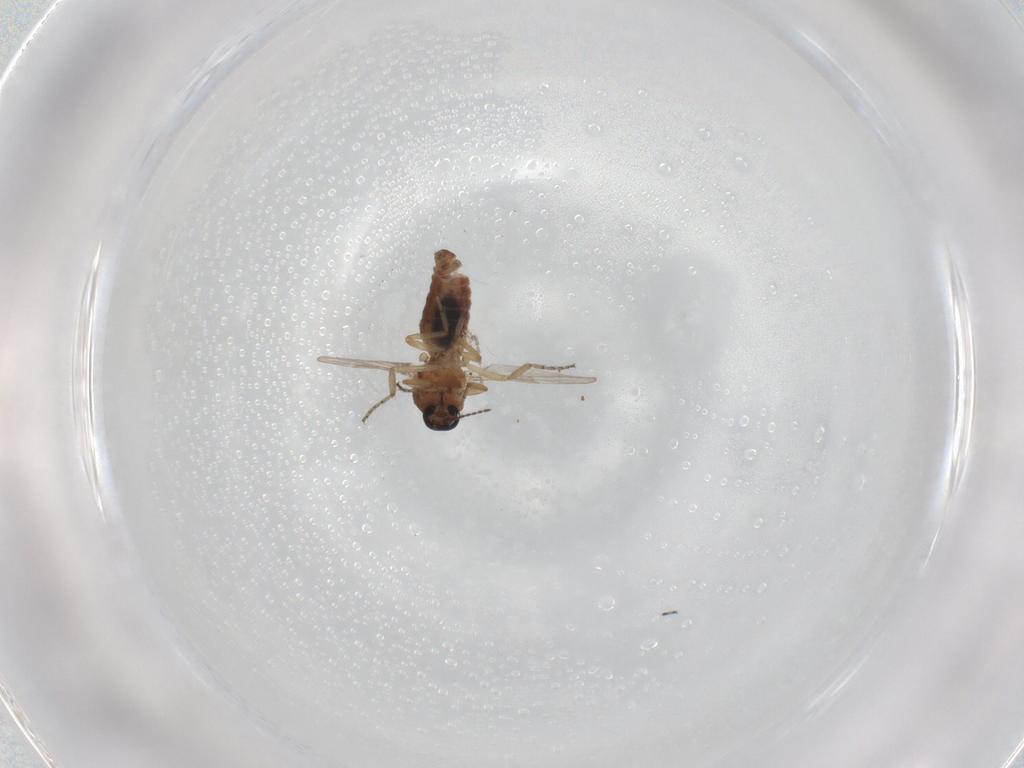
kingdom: Animalia
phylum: Arthropoda
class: Insecta
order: Diptera
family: Ceratopogonidae
